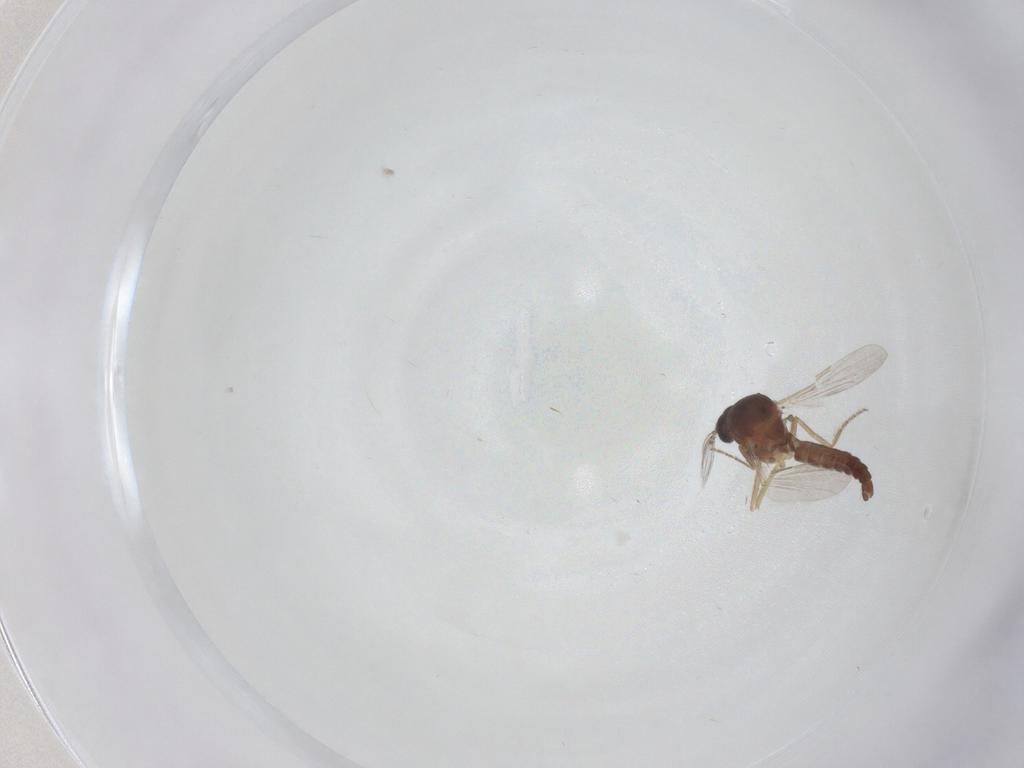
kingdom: Animalia
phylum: Arthropoda
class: Insecta
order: Diptera
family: Ceratopogonidae
